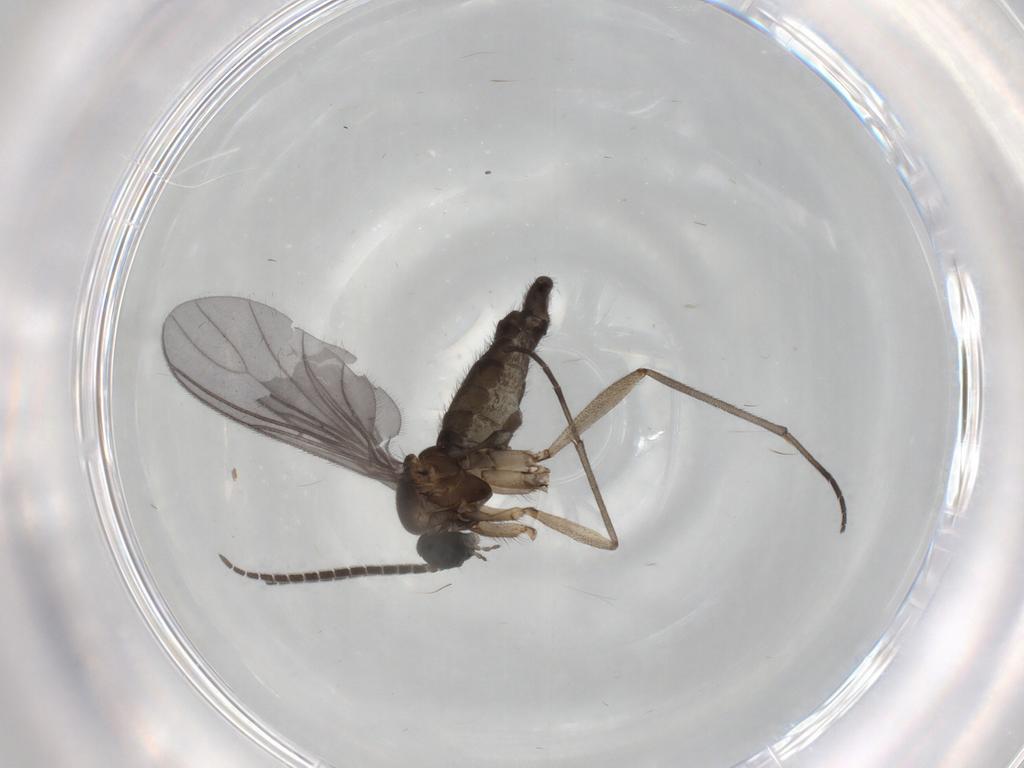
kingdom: Animalia
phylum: Arthropoda
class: Insecta
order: Diptera
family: Sciaridae
